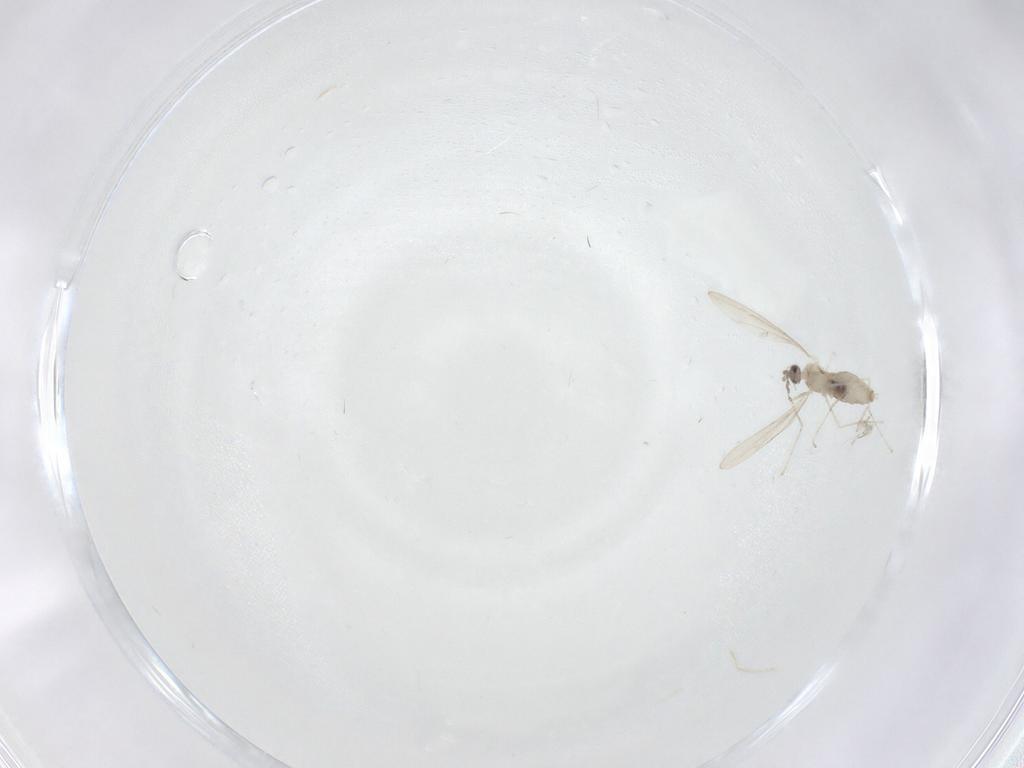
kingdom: Animalia
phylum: Arthropoda
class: Insecta
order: Diptera
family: Cecidomyiidae
